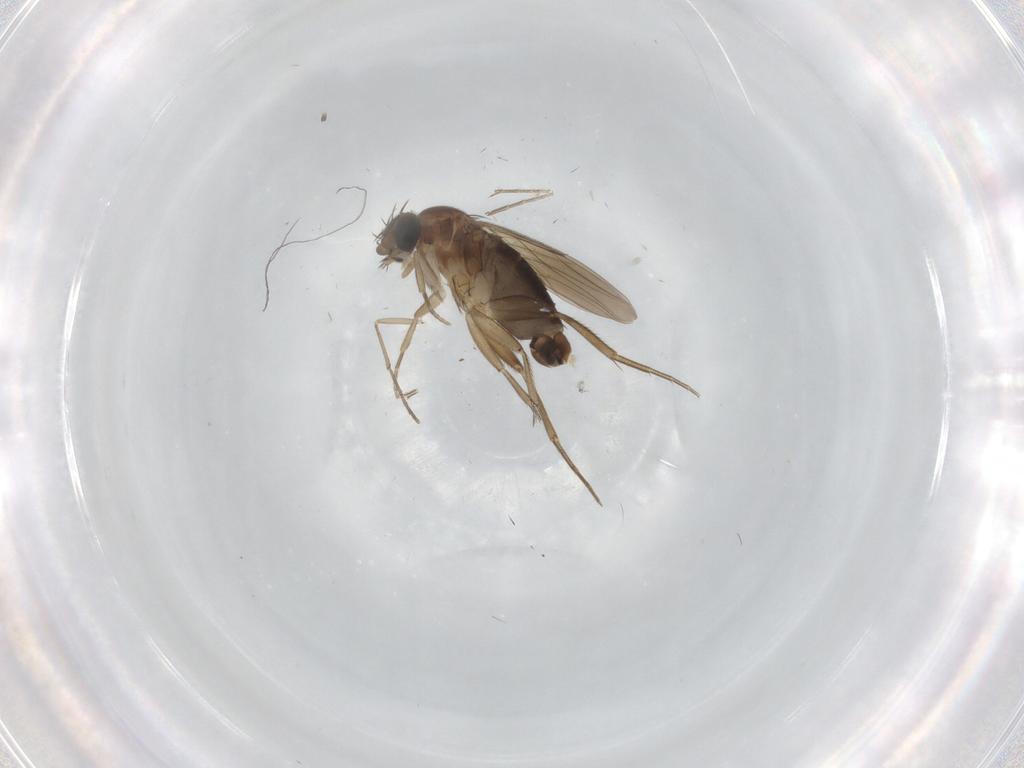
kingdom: Animalia
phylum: Arthropoda
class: Insecta
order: Diptera
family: Phoridae
